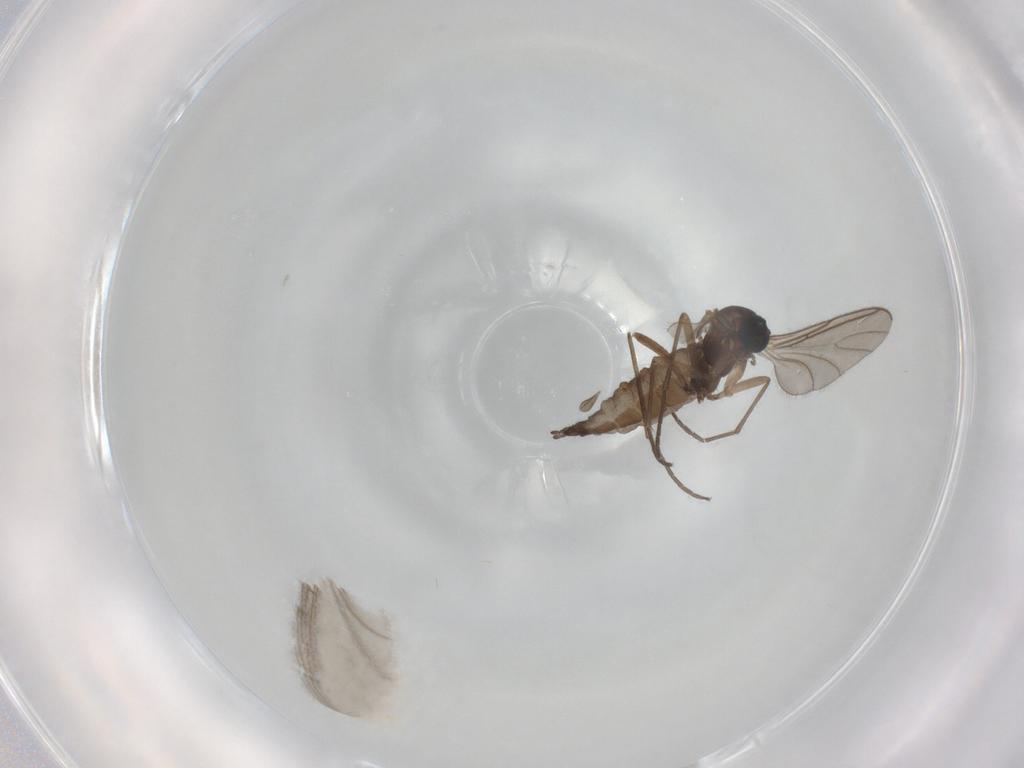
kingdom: Animalia
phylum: Arthropoda
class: Insecta
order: Diptera
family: Sciaridae
